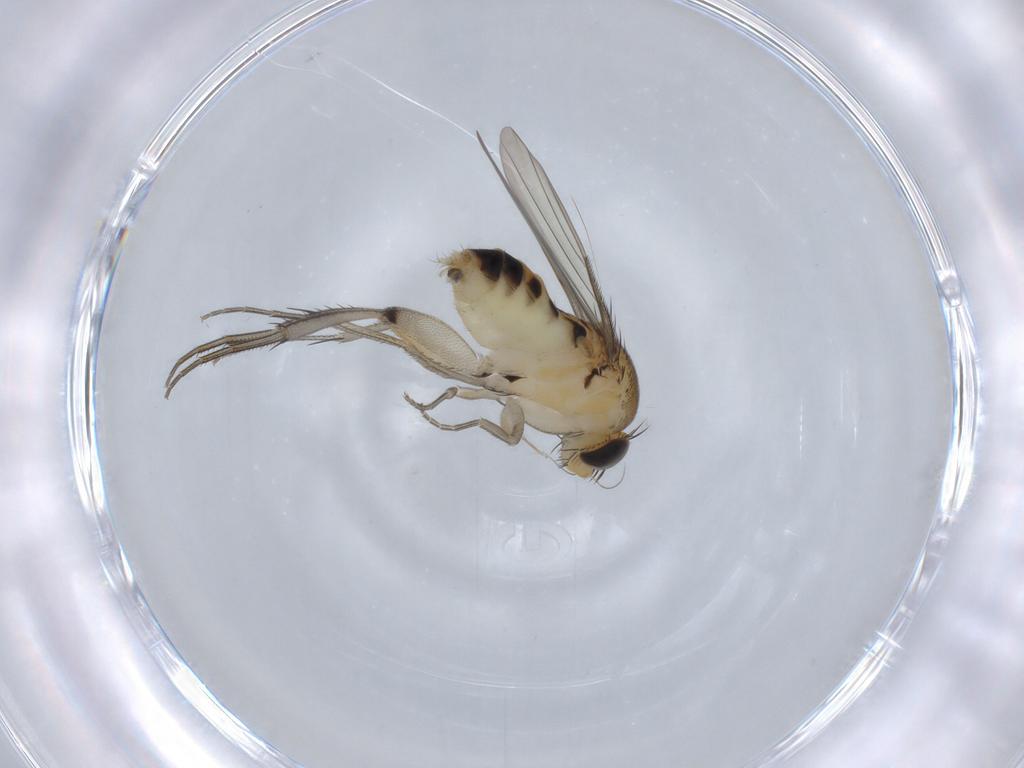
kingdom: Animalia
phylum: Arthropoda
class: Insecta
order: Diptera
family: Phoridae
